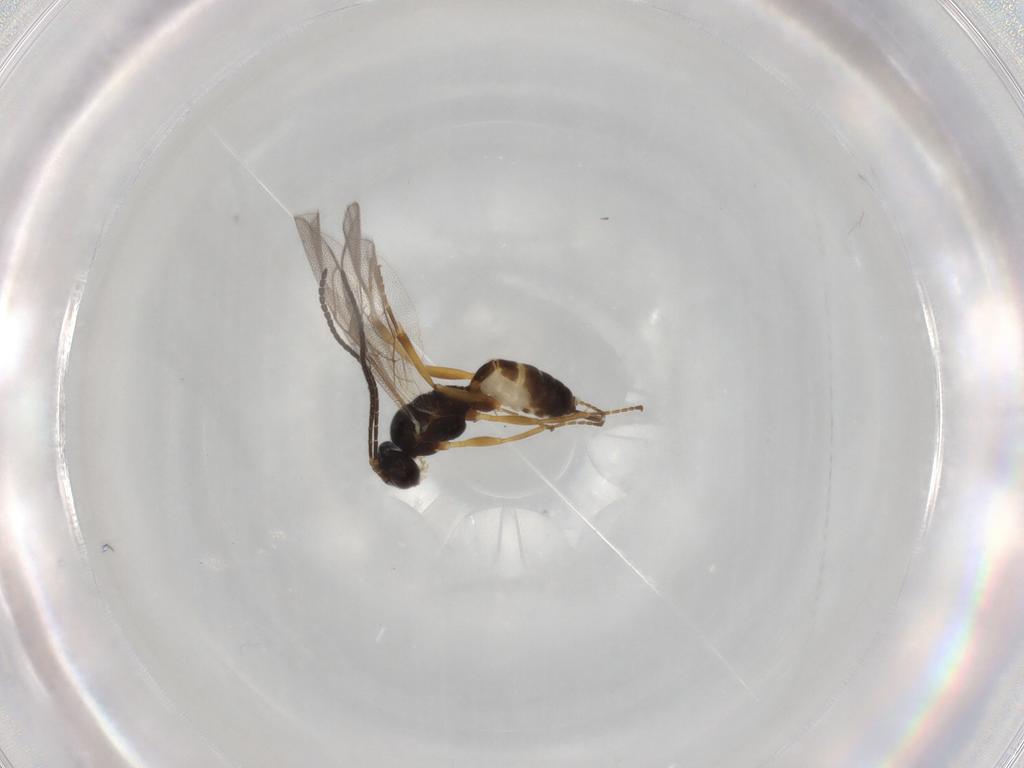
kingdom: Animalia
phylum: Arthropoda
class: Insecta
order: Hymenoptera
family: Ichneumonidae
